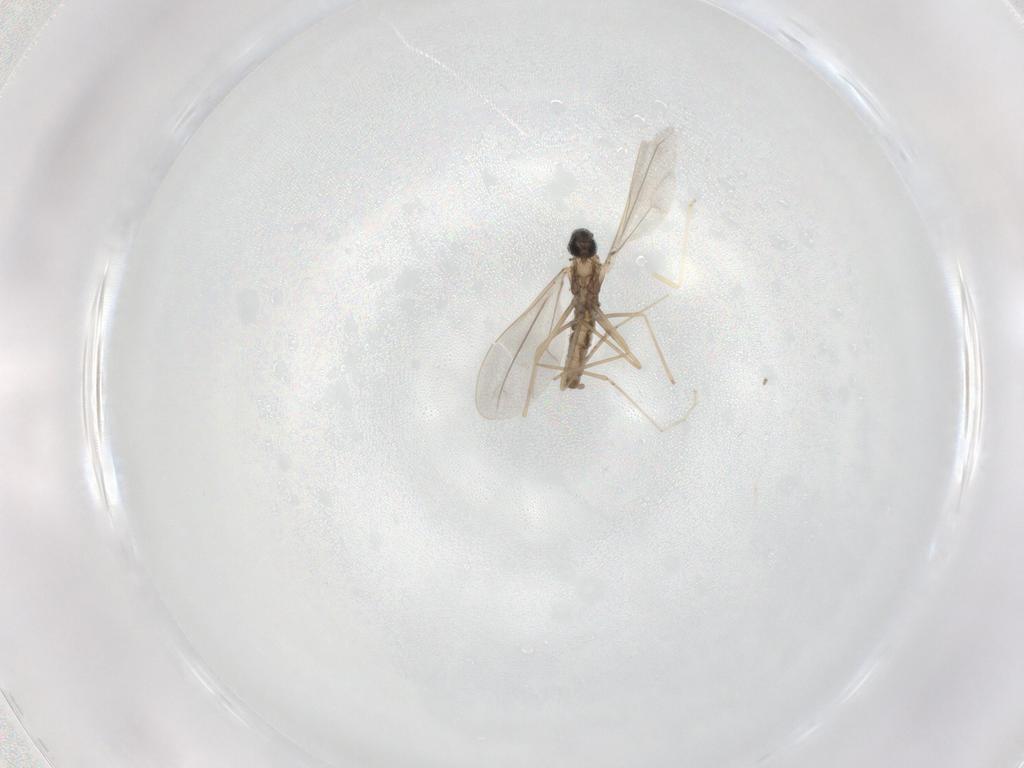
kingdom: Animalia
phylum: Arthropoda
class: Insecta
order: Diptera
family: Cecidomyiidae
